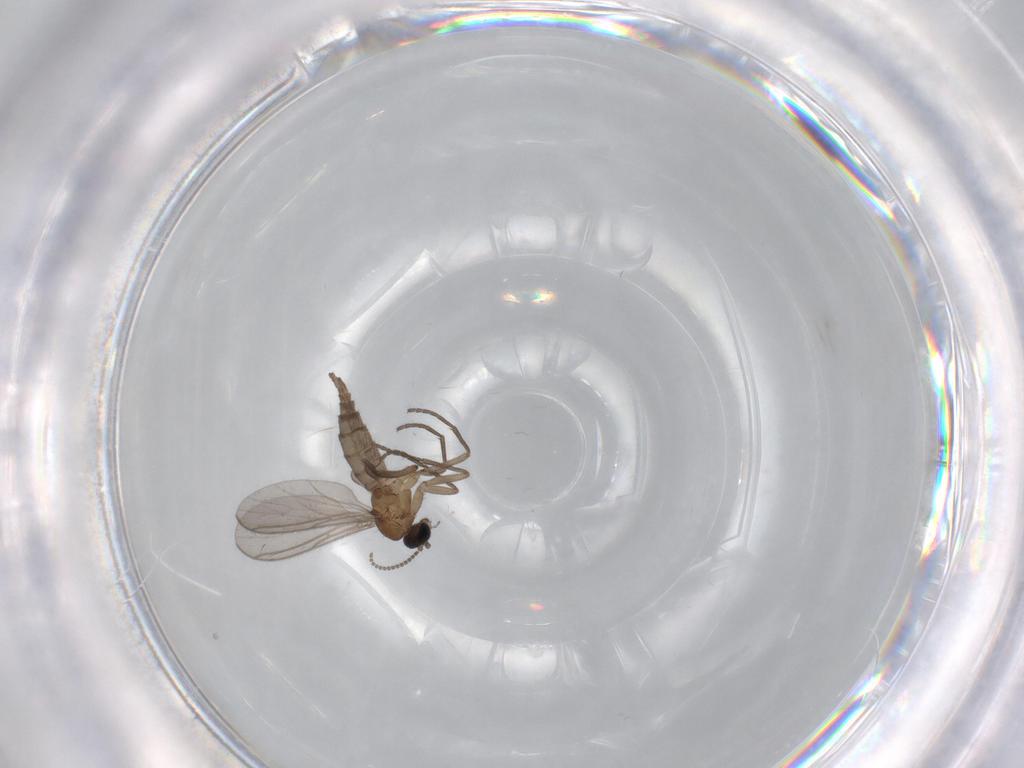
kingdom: Animalia
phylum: Arthropoda
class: Insecta
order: Diptera
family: Sciaridae
